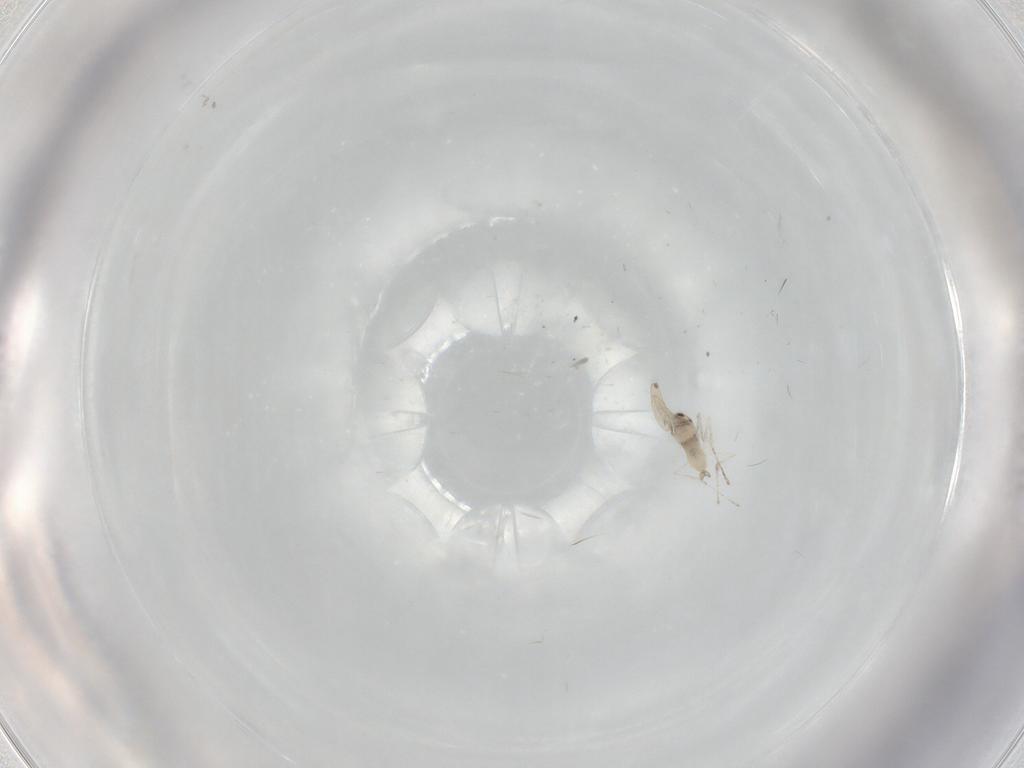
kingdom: Animalia
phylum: Arthropoda
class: Insecta
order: Diptera
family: Cecidomyiidae
